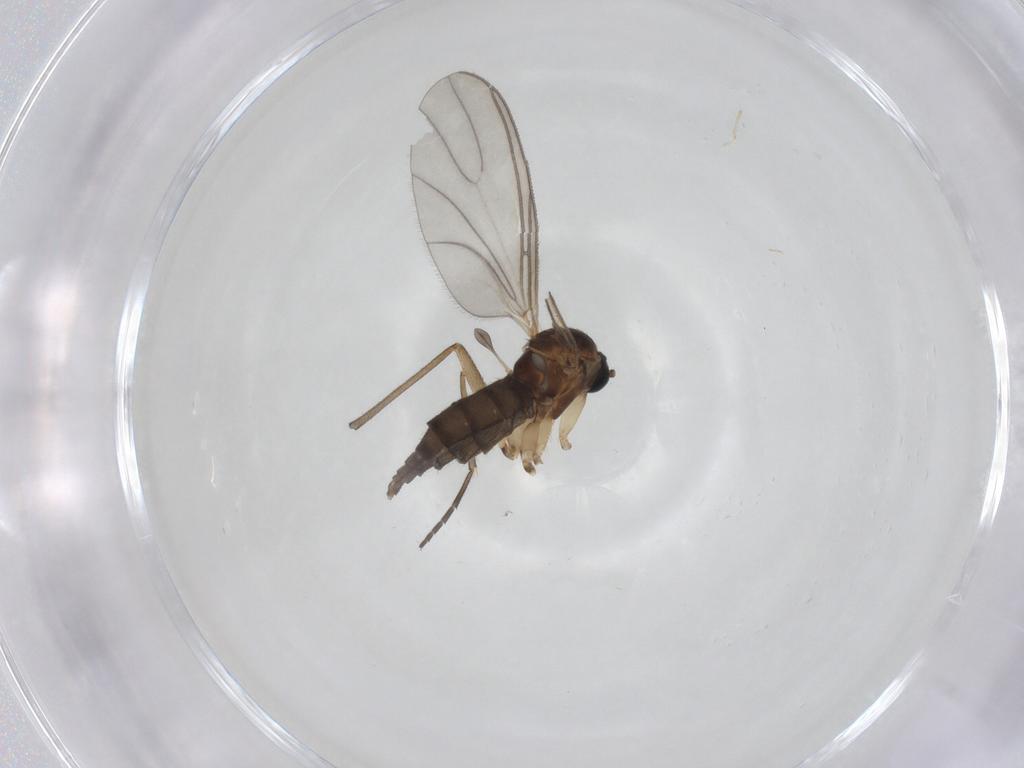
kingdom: Animalia
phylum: Arthropoda
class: Insecta
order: Diptera
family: Sciaridae
